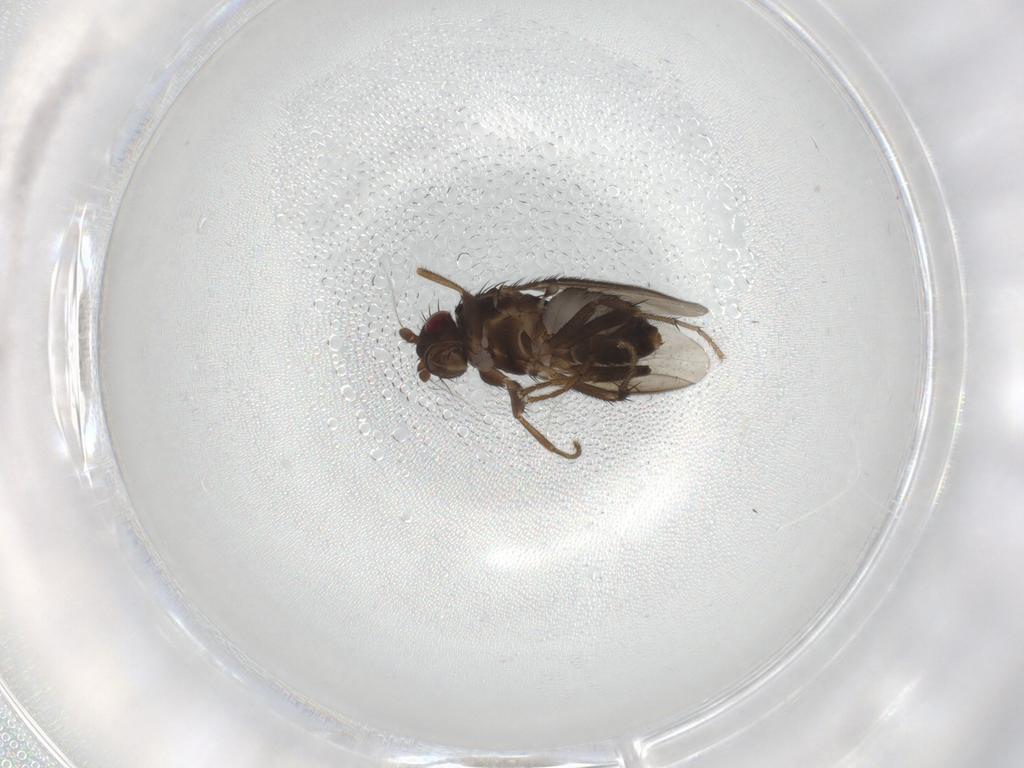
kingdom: Animalia
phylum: Arthropoda
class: Insecta
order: Diptera
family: Phoridae
